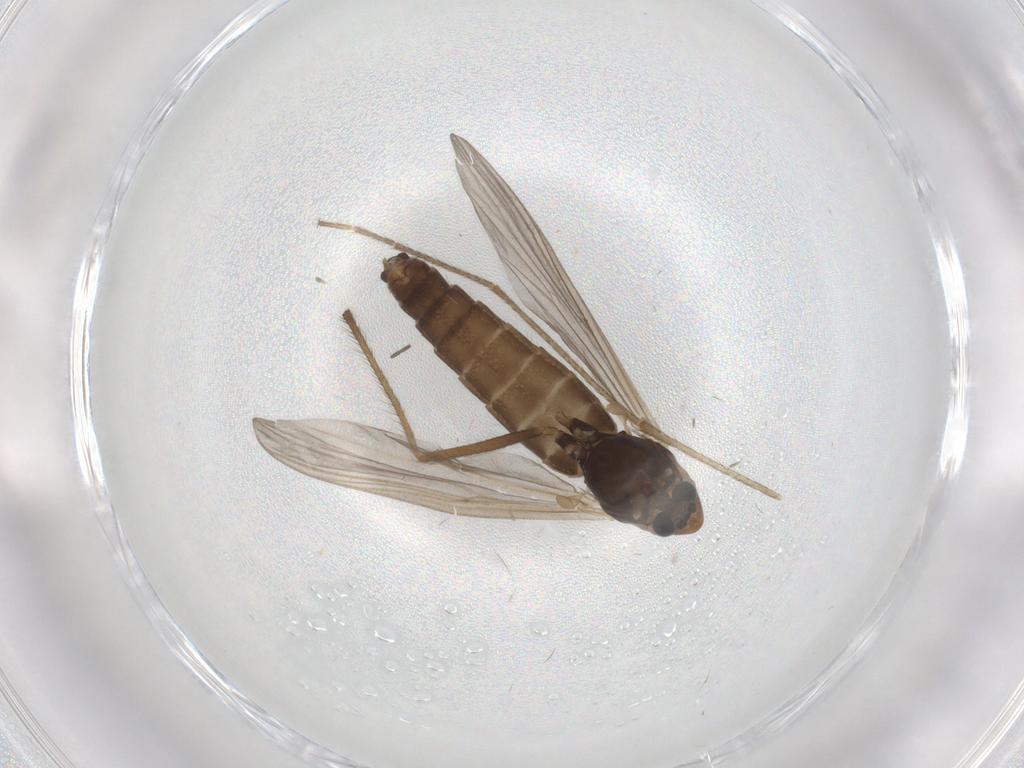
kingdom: Animalia
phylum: Arthropoda
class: Insecta
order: Diptera
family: Chironomidae
